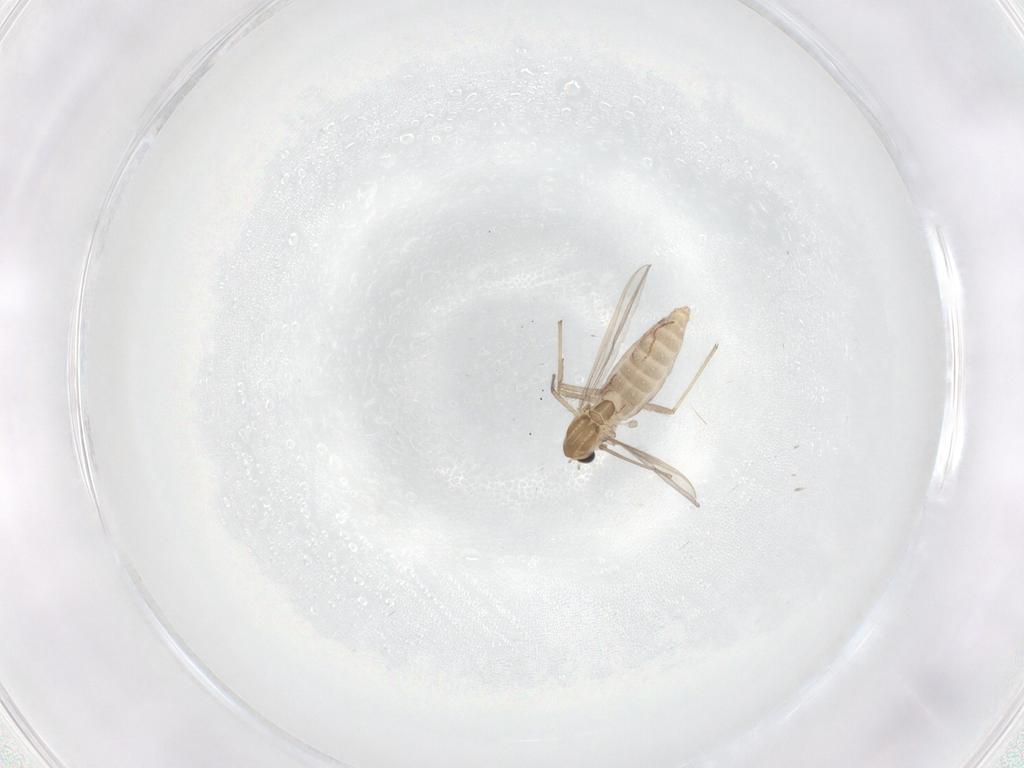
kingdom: Animalia
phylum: Arthropoda
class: Insecta
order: Diptera
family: Chironomidae
